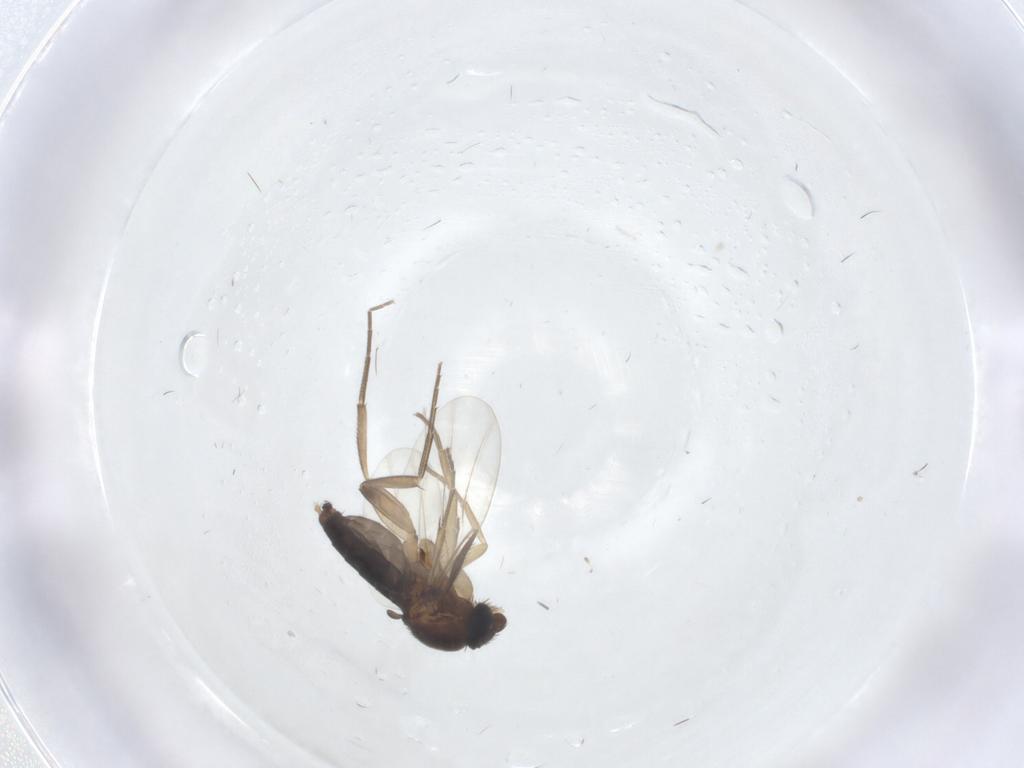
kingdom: Animalia
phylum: Arthropoda
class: Insecta
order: Diptera
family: Phoridae
